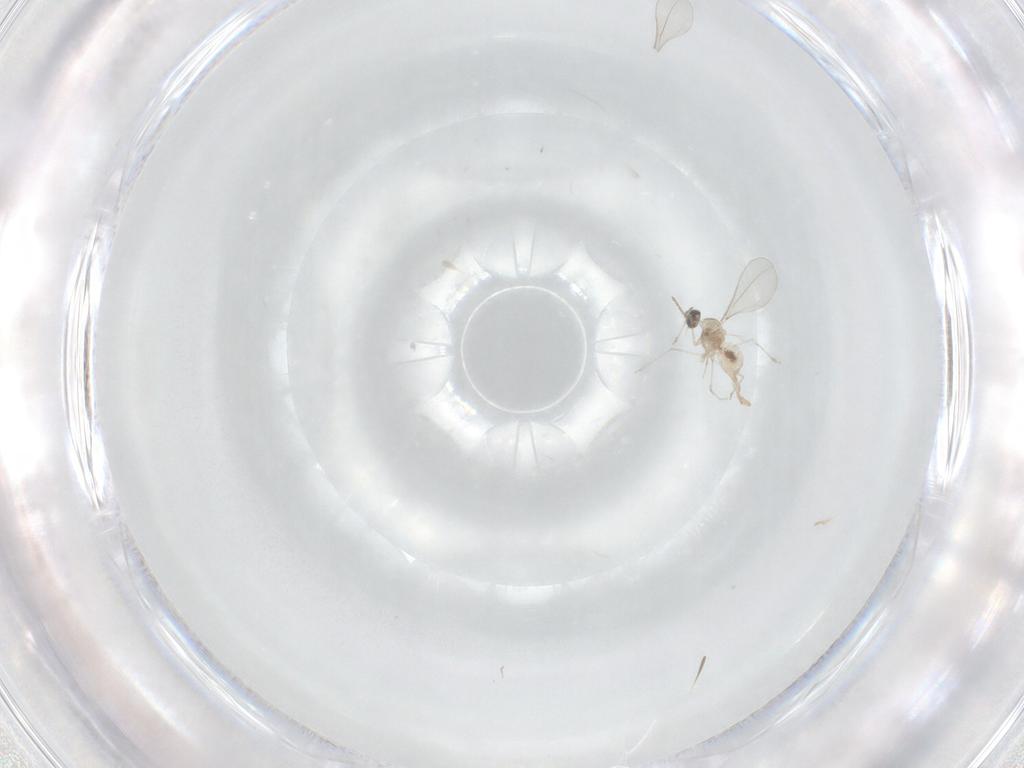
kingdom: Animalia
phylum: Arthropoda
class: Insecta
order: Diptera
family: Cecidomyiidae
